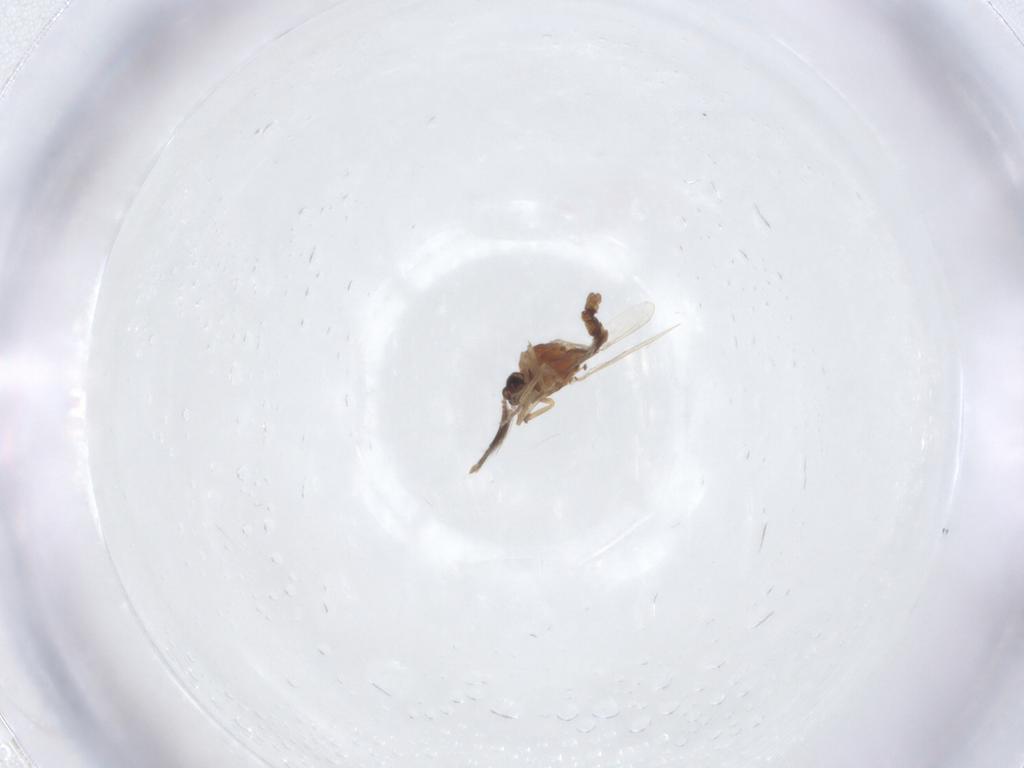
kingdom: Animalia
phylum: Arthropoda
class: Insecta
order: Diptera
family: Ceratopogonidae
